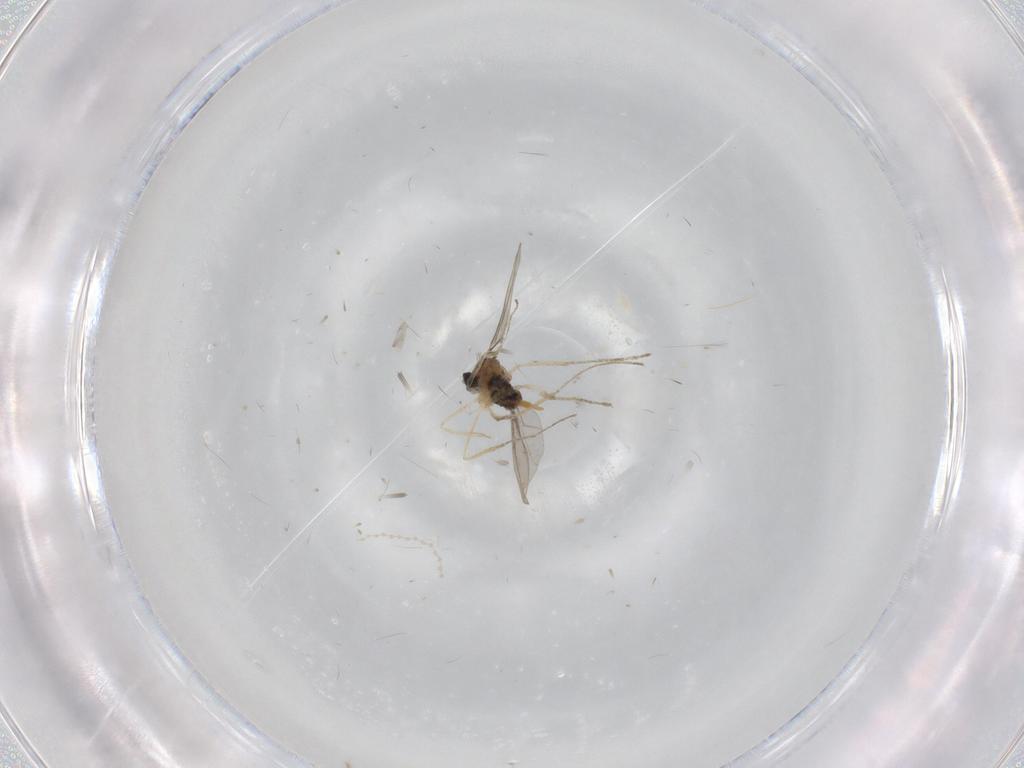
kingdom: Animalia
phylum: Arthropoda
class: Insecta
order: Diptera
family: Cecidomyiidae
